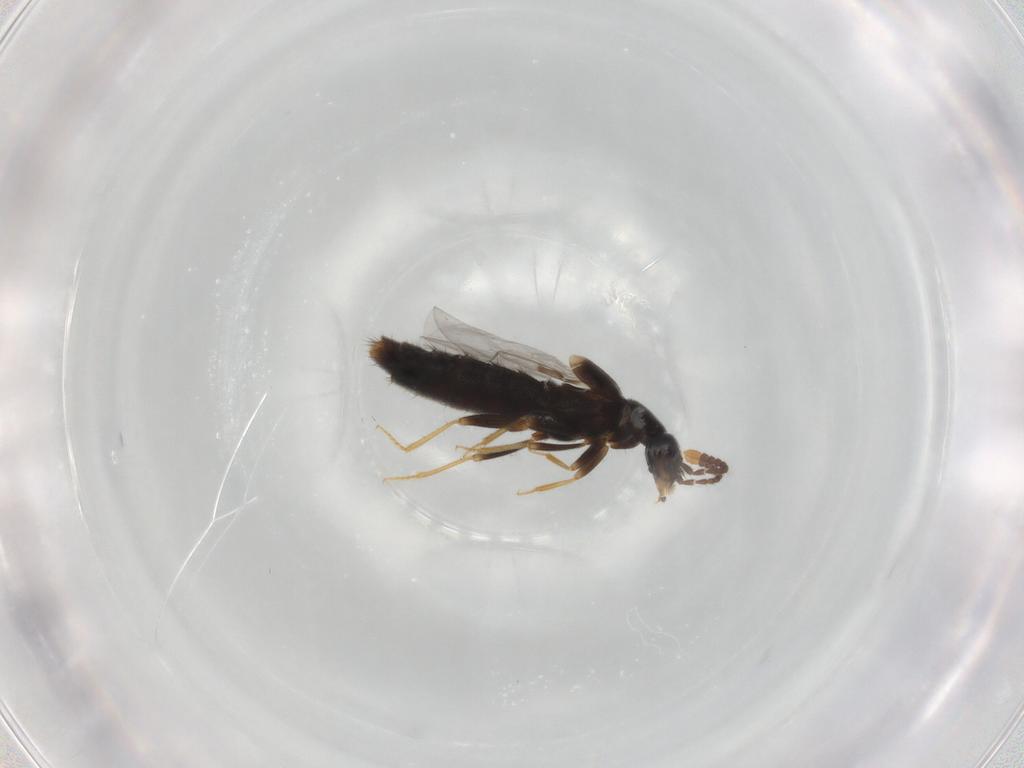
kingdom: Animalia
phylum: Arthropoda
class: Insecta
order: Coleoptera
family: Staphylinidae
